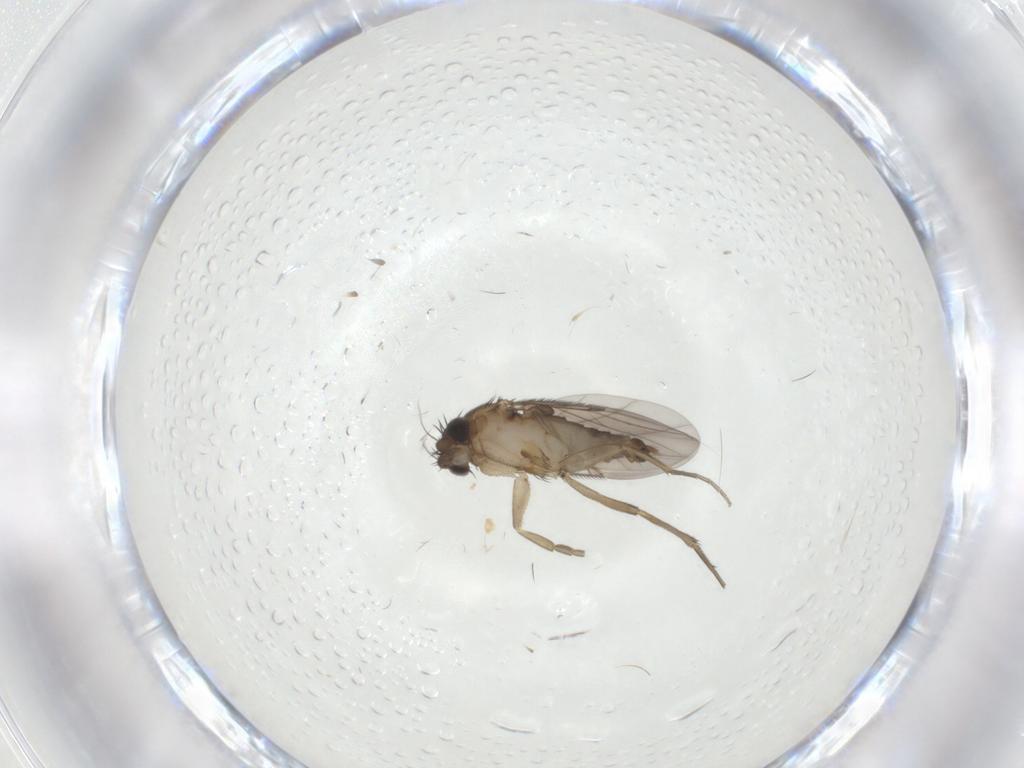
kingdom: Animalia
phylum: Arthropoda
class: Insecta
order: Diptera
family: Phoridae
